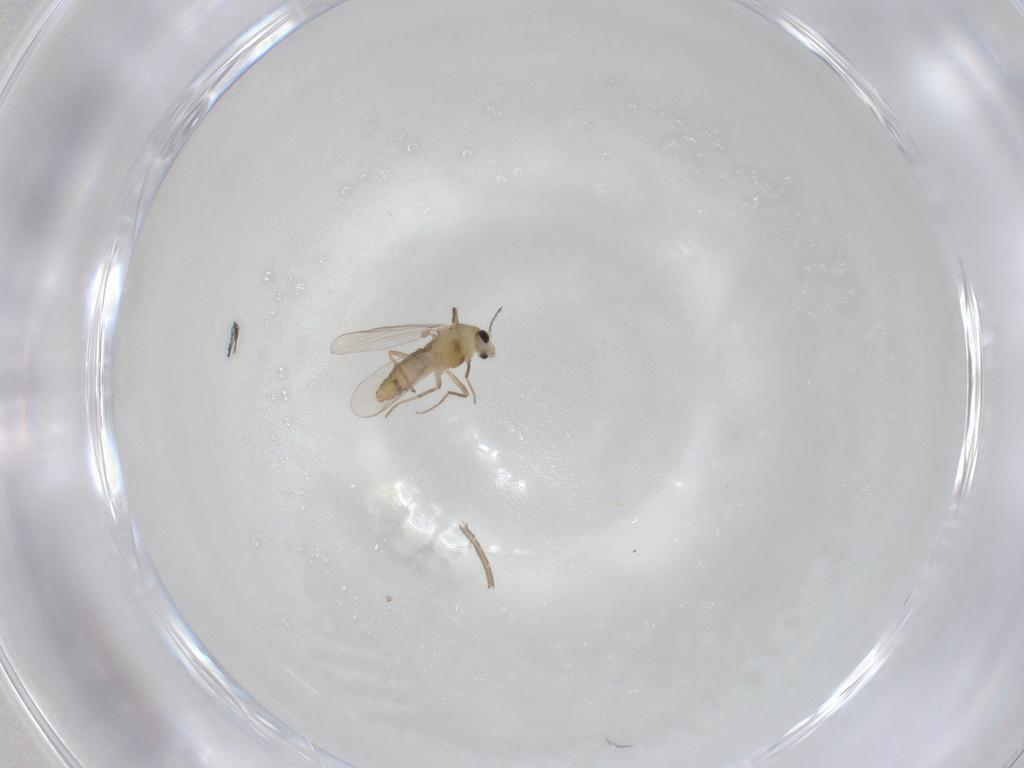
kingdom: Animalia
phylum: Arthropoda
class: Insecta
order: Diptera
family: Chironomidae
